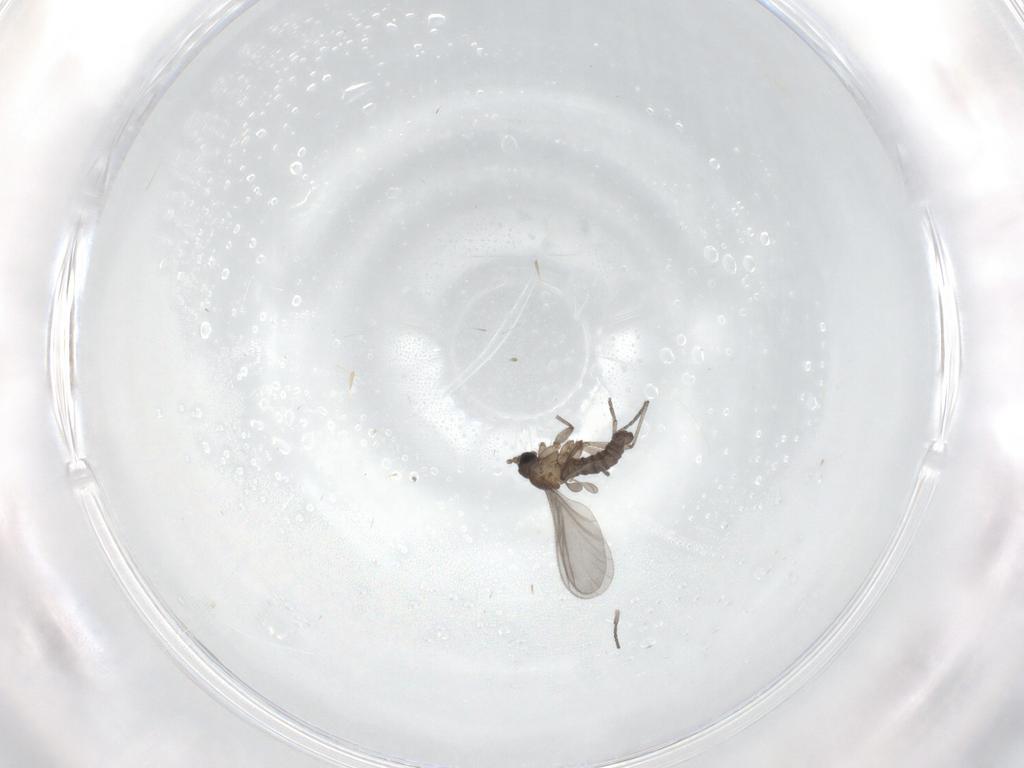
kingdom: Animalia
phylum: Arthropoda
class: Insecta
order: Diptera
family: Sciaridae
